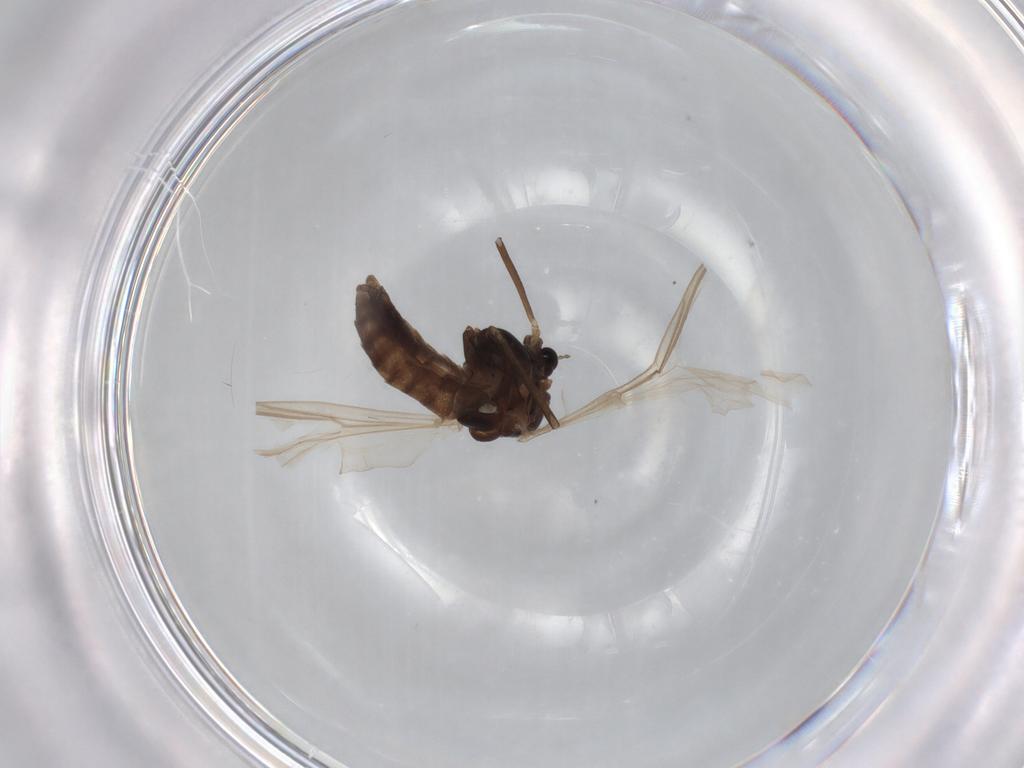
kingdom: Animalia
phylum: Arthropoda
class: Insecta
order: Diptera
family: Chironomidae
